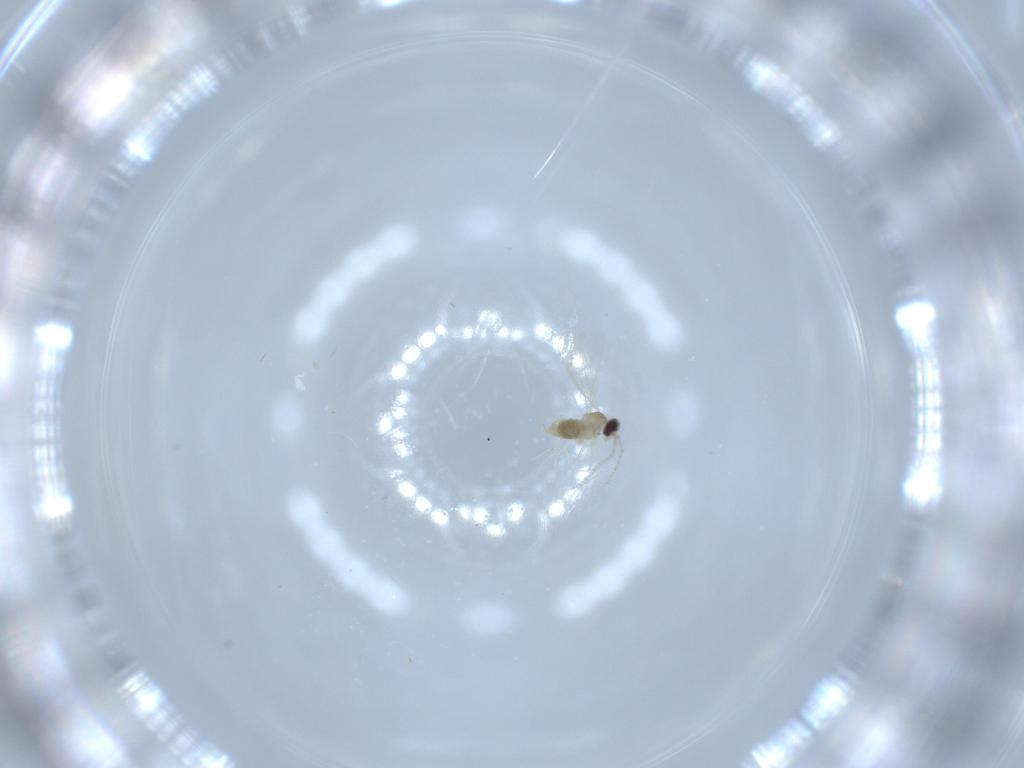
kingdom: Animalia
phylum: Arthropoda
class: Insecta
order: Diptera
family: Cecidomyiidae
